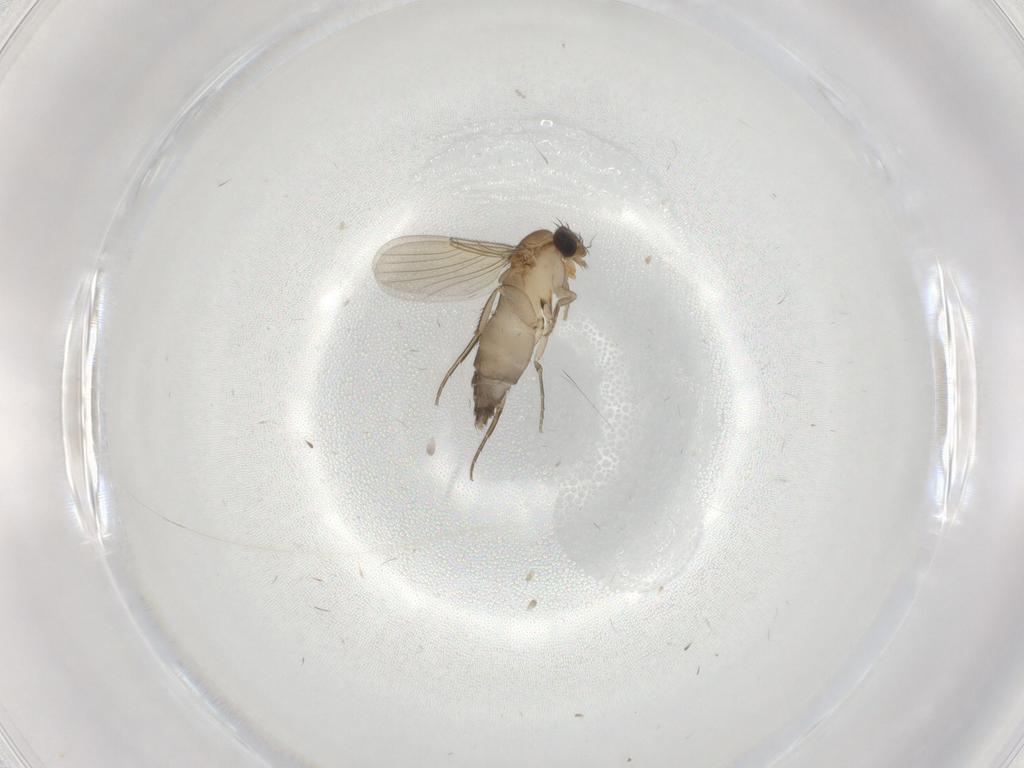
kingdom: Animalia
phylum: Arthropoda
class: Insecta
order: Diptera
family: Phoridae
